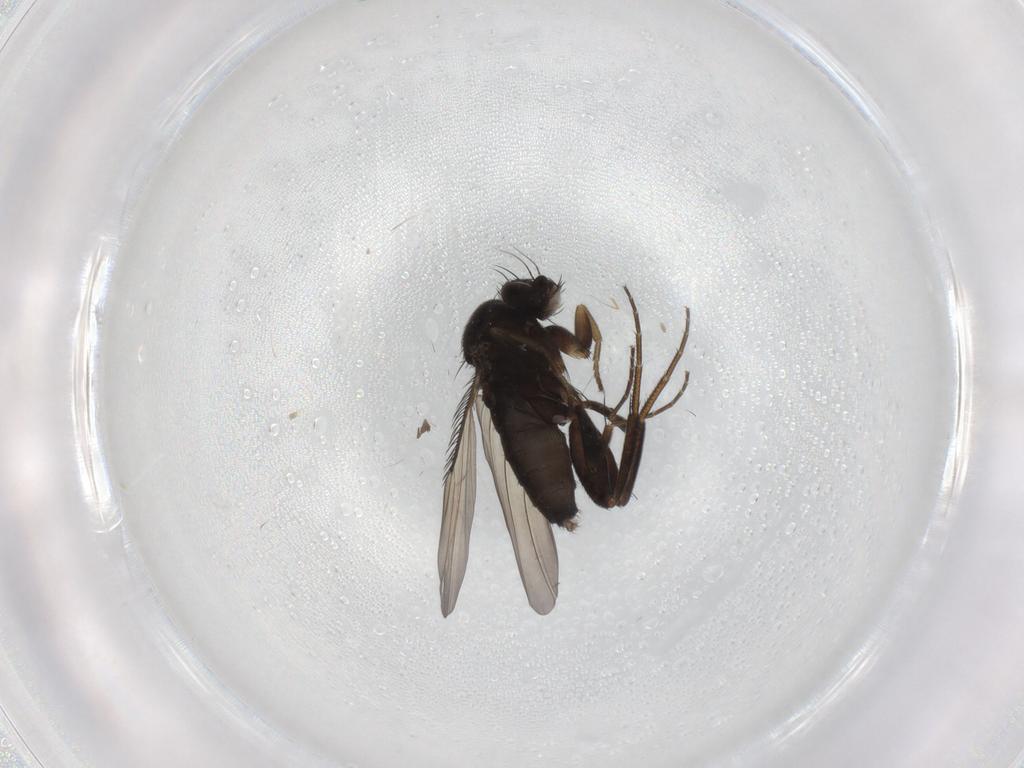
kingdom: Animalia
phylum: Arthropoda
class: Insecta
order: Diptera
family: Phoridae
